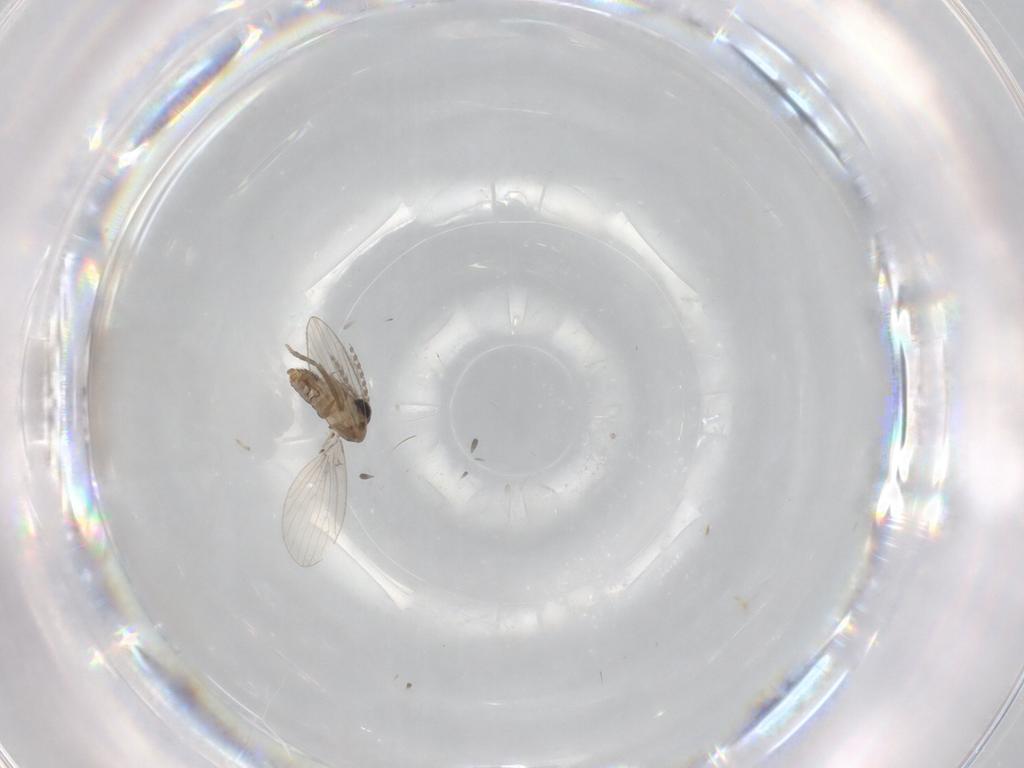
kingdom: Animalia
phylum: Arthropoda
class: Insecta
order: Diptera
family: Psychodidae
